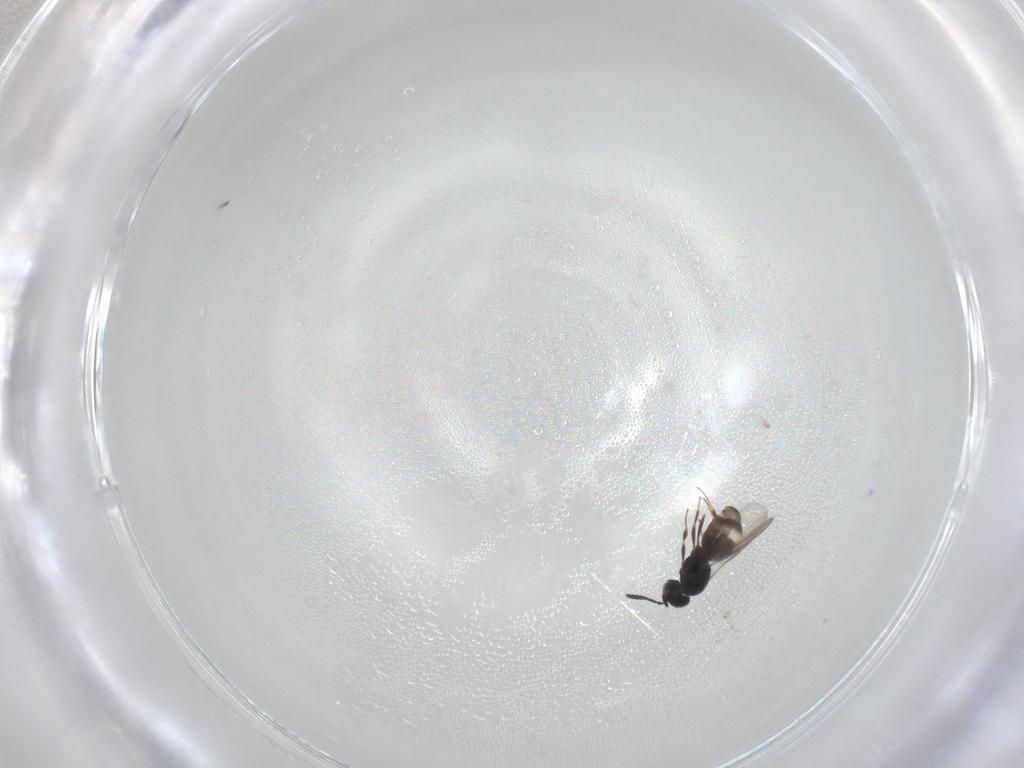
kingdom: Animalia
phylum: Arthropoda
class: Insecta
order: Hymenoptera
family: Scelionidae
